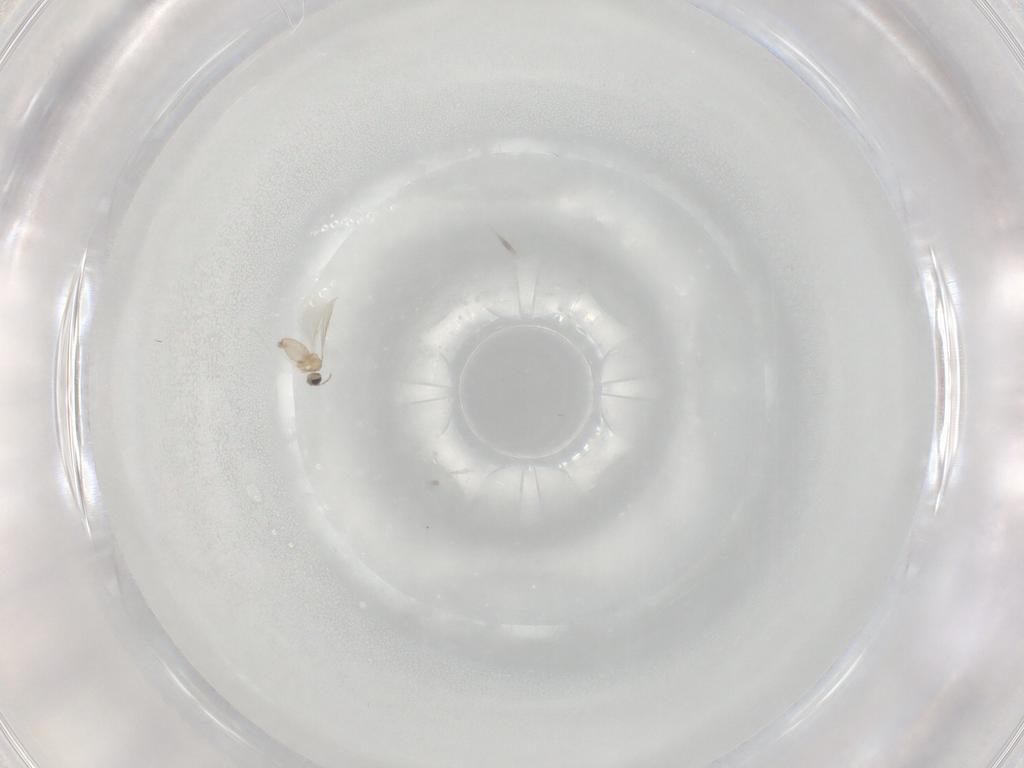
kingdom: Animalia
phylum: Arthropoda
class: Insecta
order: Diptera
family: Cecidomyiidae
